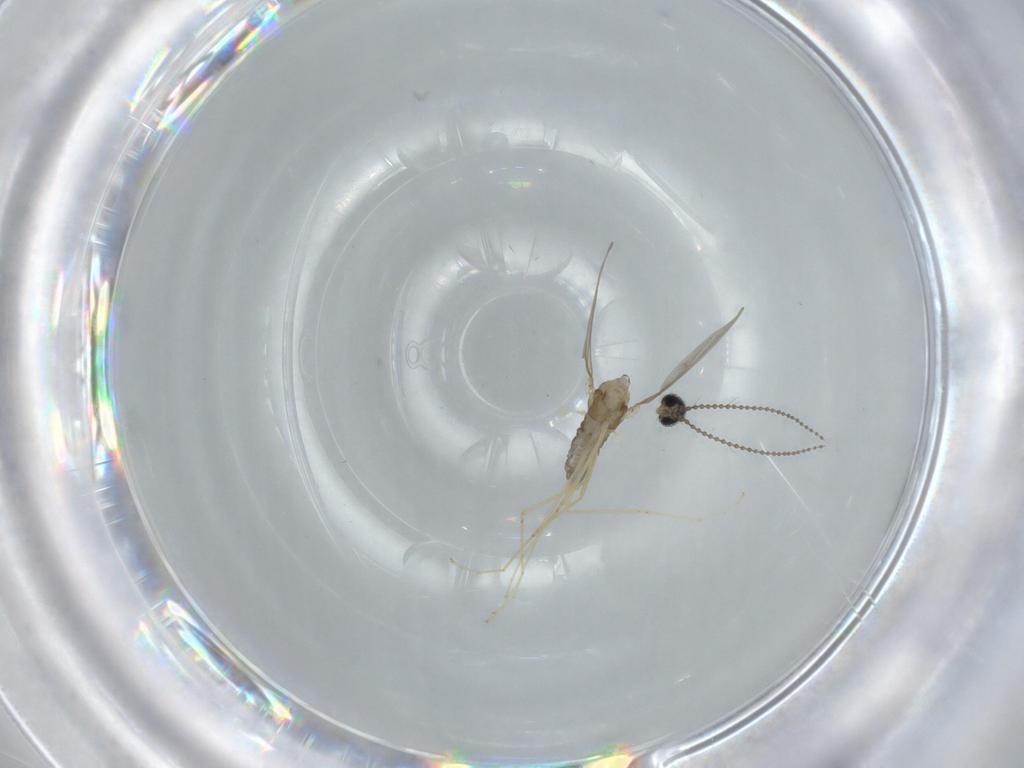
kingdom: Animalia
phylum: Arthropoda
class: Insecta
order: Diptera
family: Cecidomyiidae
